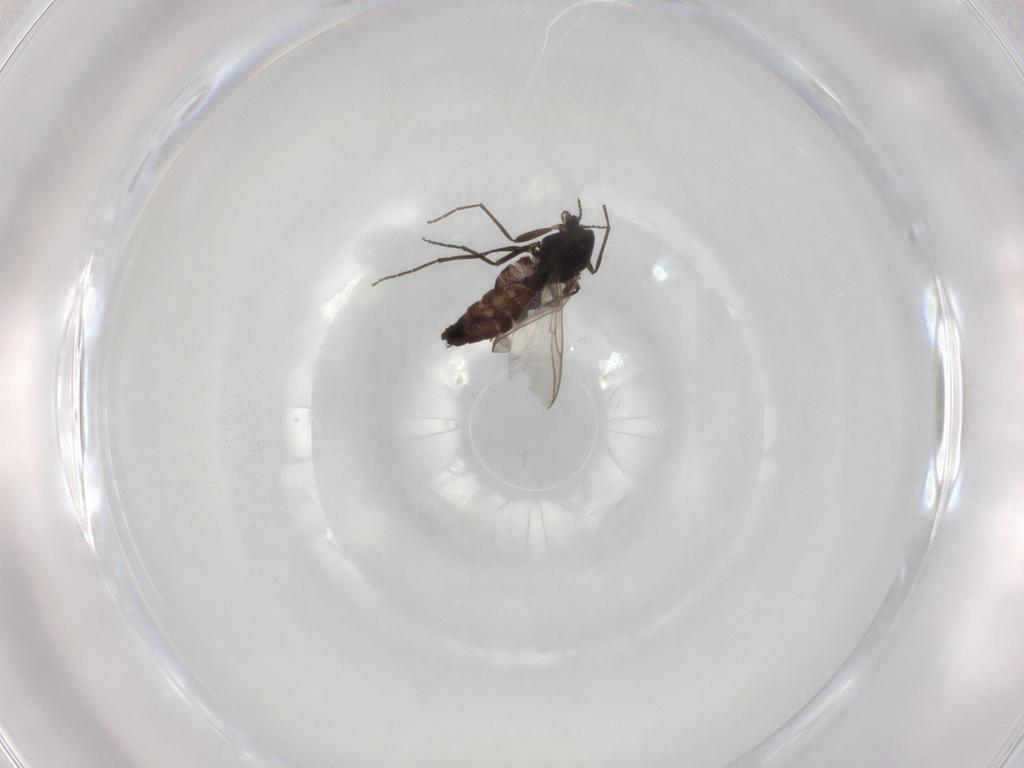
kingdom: Animalia
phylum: Arthropoda
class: Insecta
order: Diptera
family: Chironomidae
